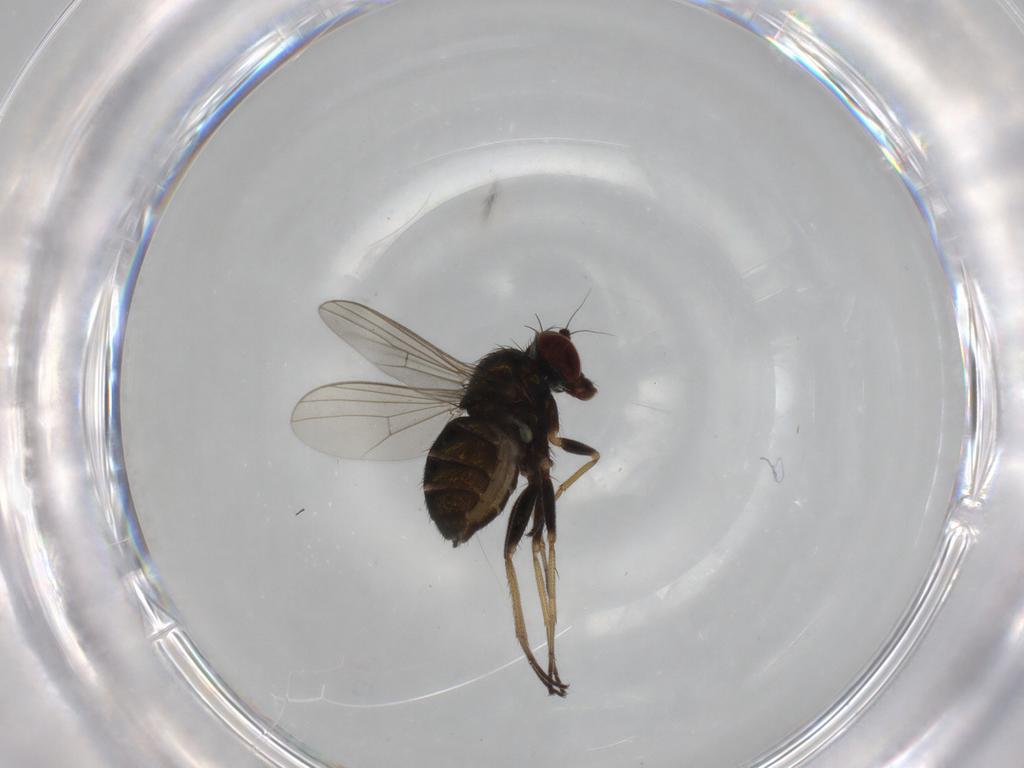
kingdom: Animalia
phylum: Arthropoda
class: Insecta
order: Diptera
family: Dolichopodidae
